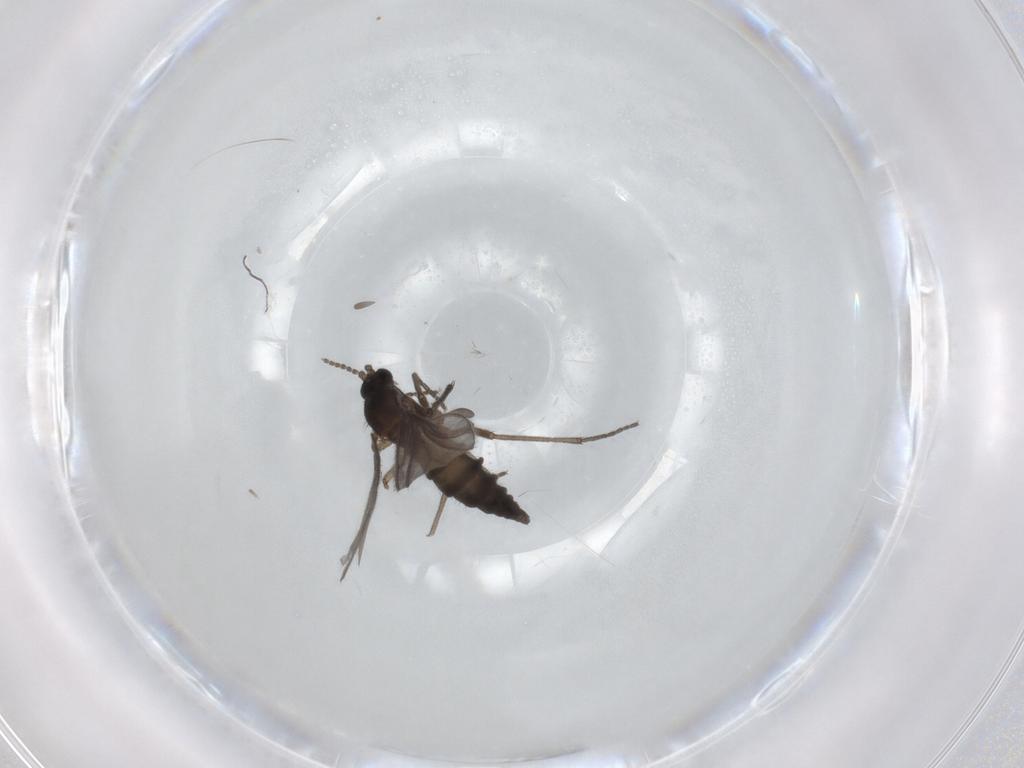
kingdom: Animalia
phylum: Arthropoda
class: Insecta
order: Diptera
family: Sciaridae
